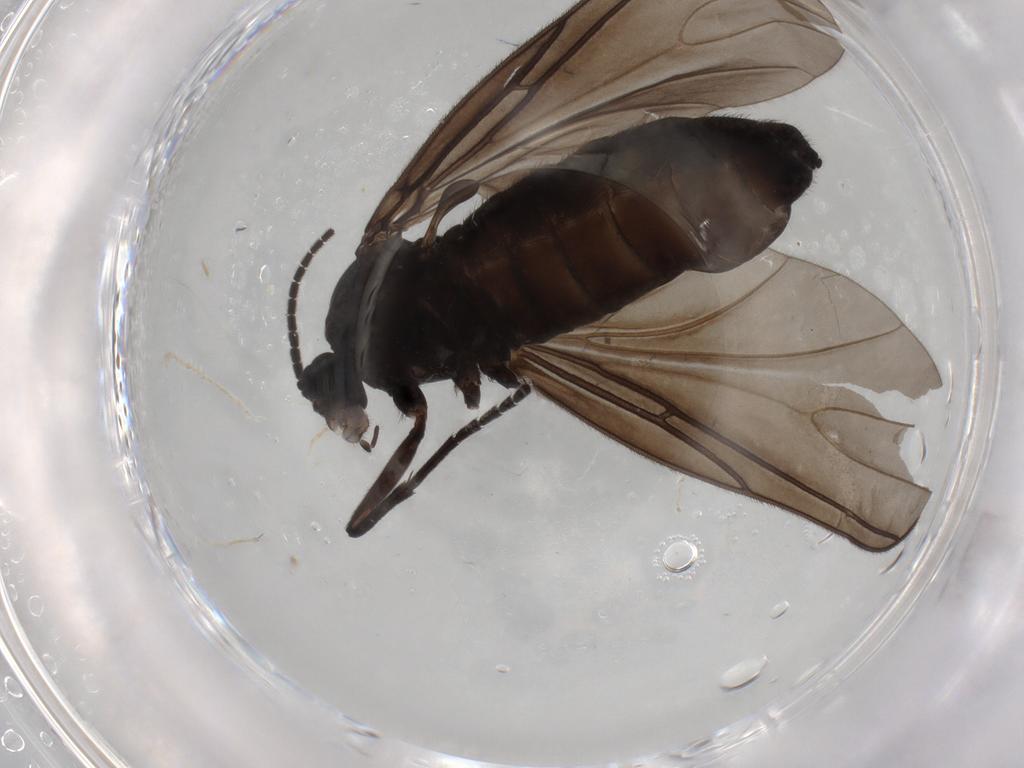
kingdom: Animalia
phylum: Arthropoda
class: Insecta
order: Diptera
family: Sciaridae
